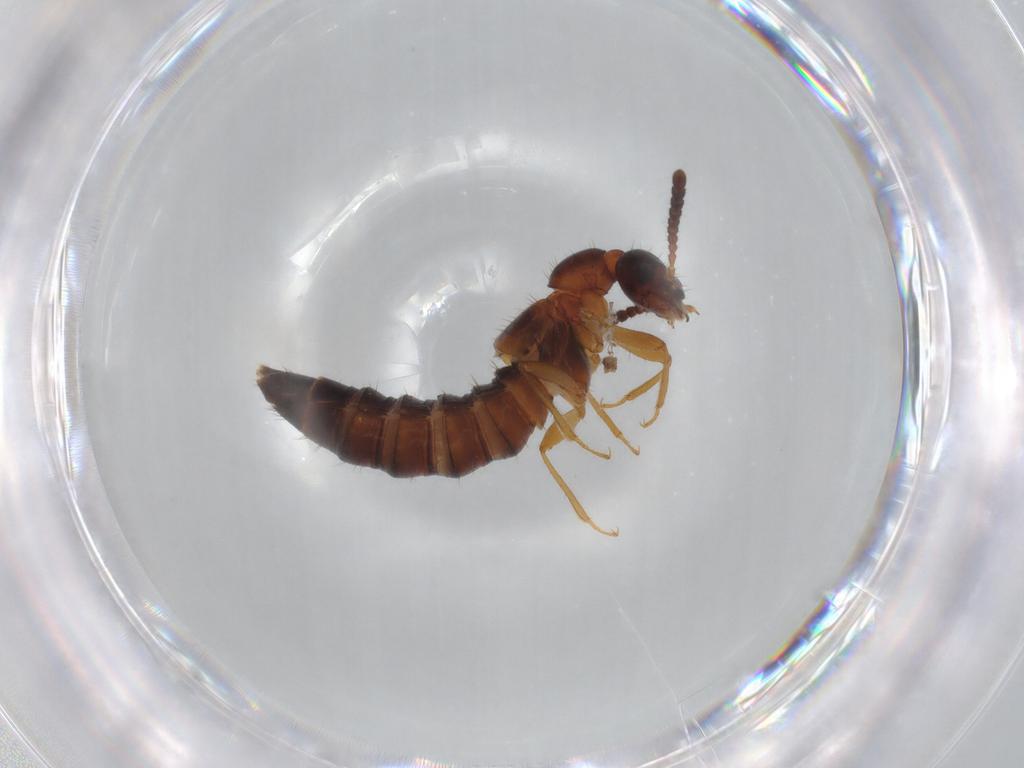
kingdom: Animalia
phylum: Arthropoda
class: Insecta
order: Coleoptera
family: Staphylinidae
